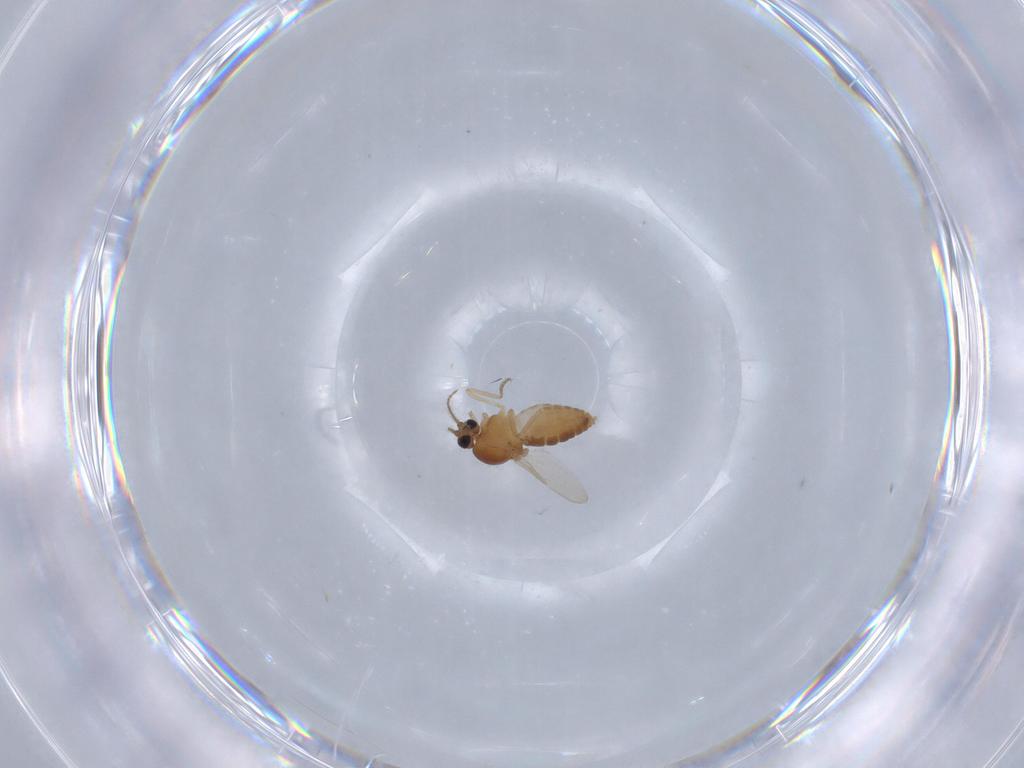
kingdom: Animalia
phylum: Arthropoda
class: Insecta
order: Diptera
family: Ceratopogonidae
